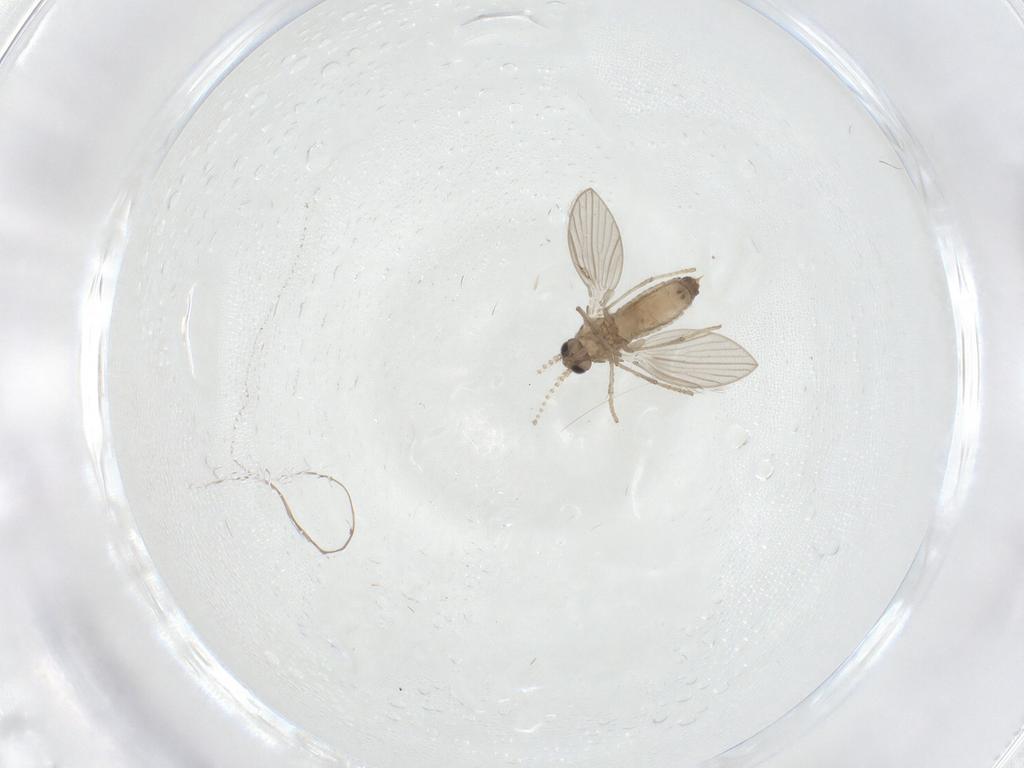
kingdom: Animalia
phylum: Arthropoda
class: Insecta
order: Diptera
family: Psychodidae
